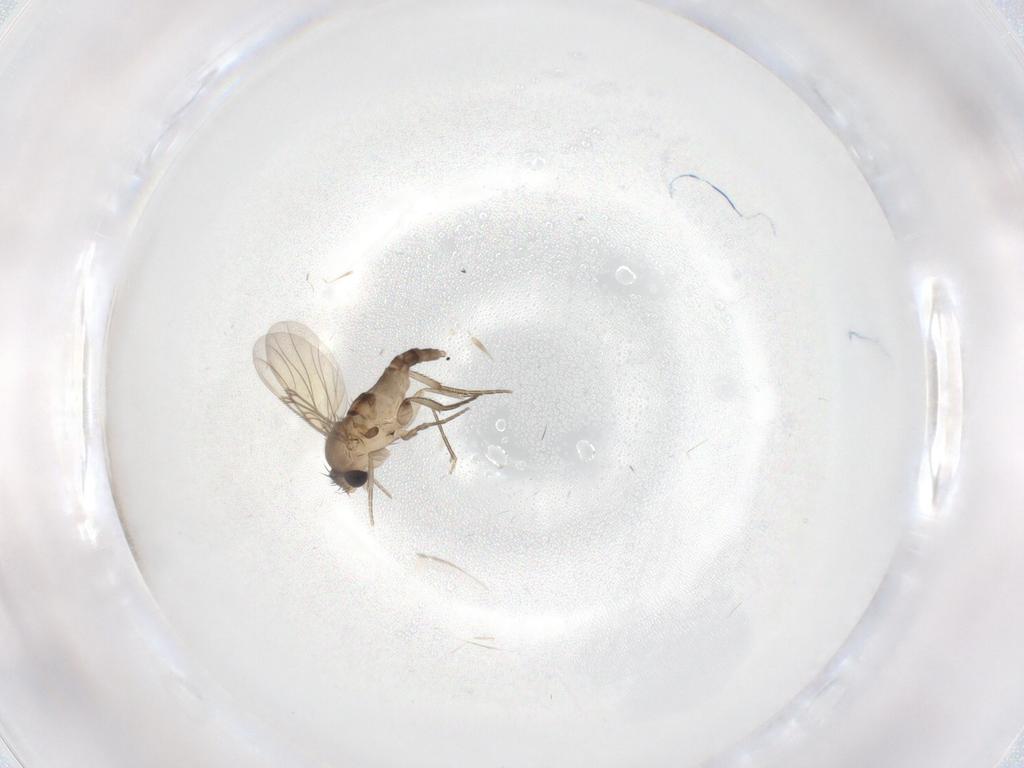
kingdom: Animalia
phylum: Arthropoda
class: Insecta
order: Diptera
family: Phoridae
